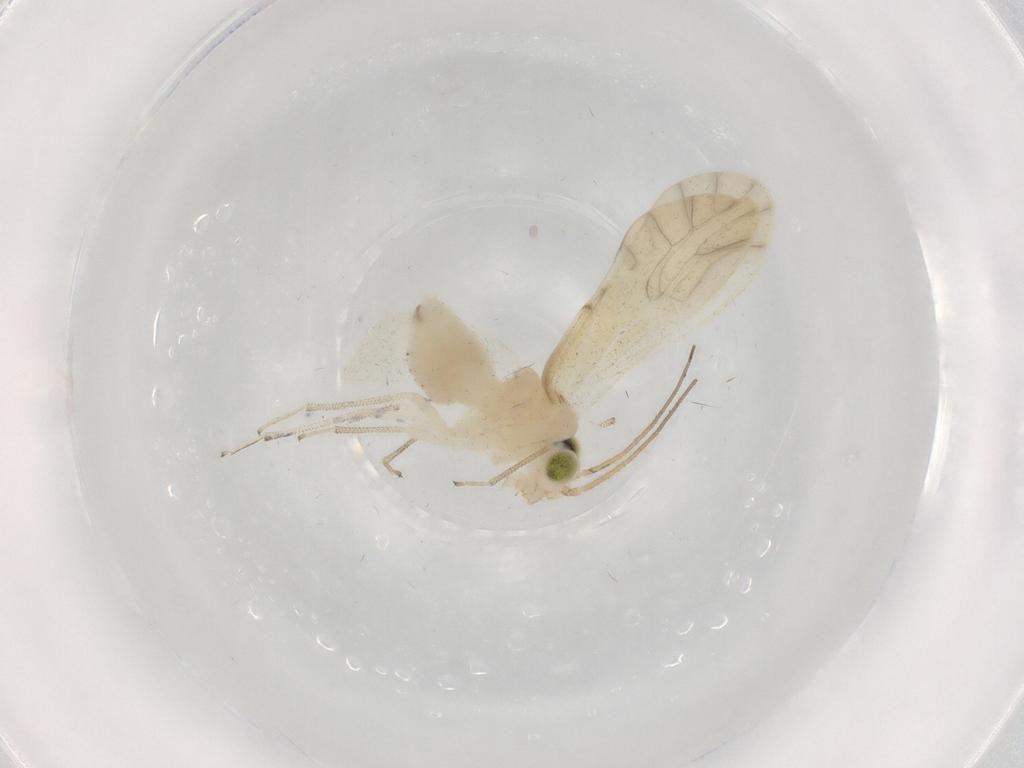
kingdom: Animalia
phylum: Arthropoda
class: Insecta
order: Psocodea
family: Caeciliusidae
